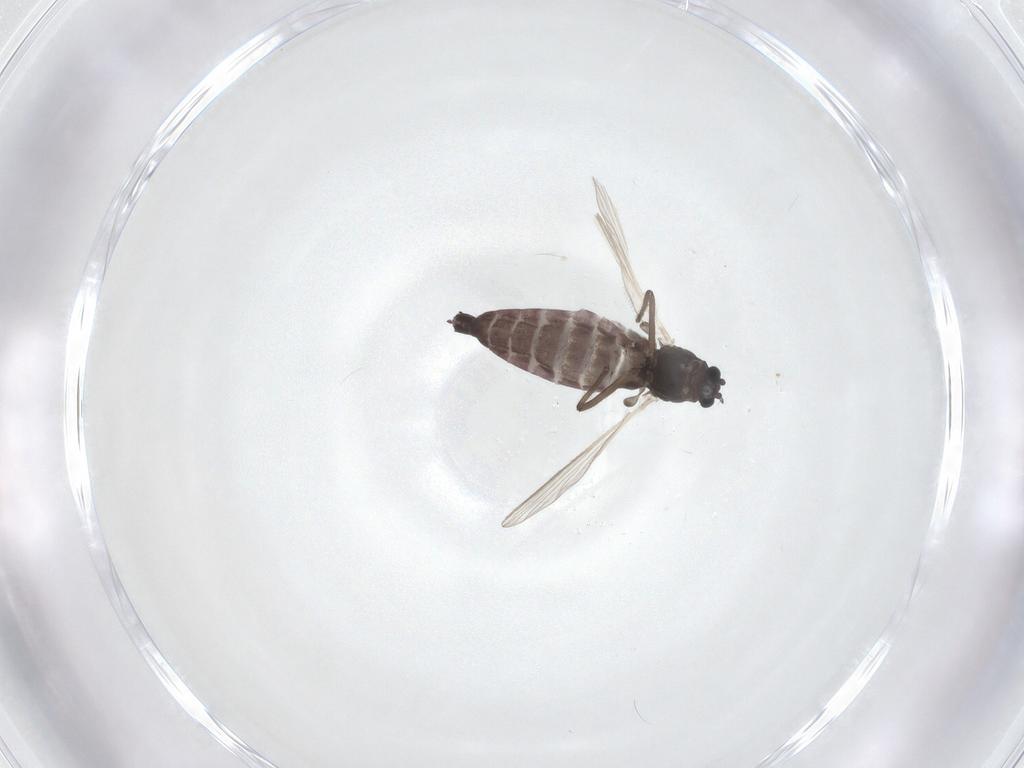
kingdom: Animalia
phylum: Arthropoda
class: Insecta
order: Diptera
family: Chironomidae
